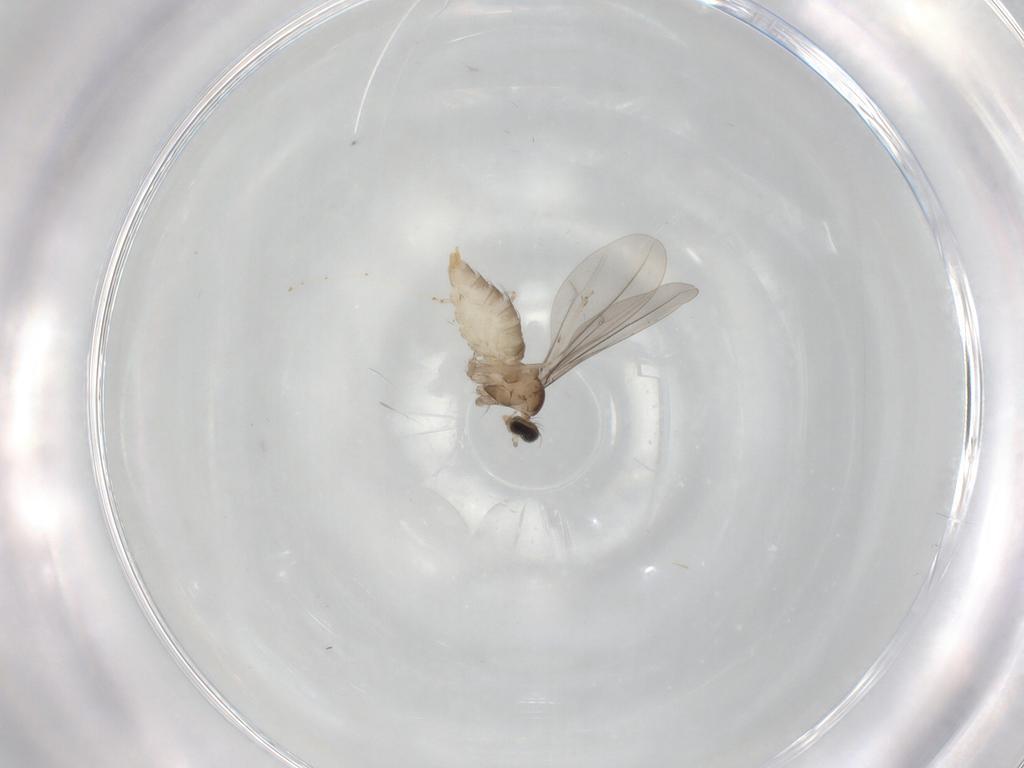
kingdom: Animalia
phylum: Arthropoda
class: Insecta
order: Diptera
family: Cecidomyiidae
